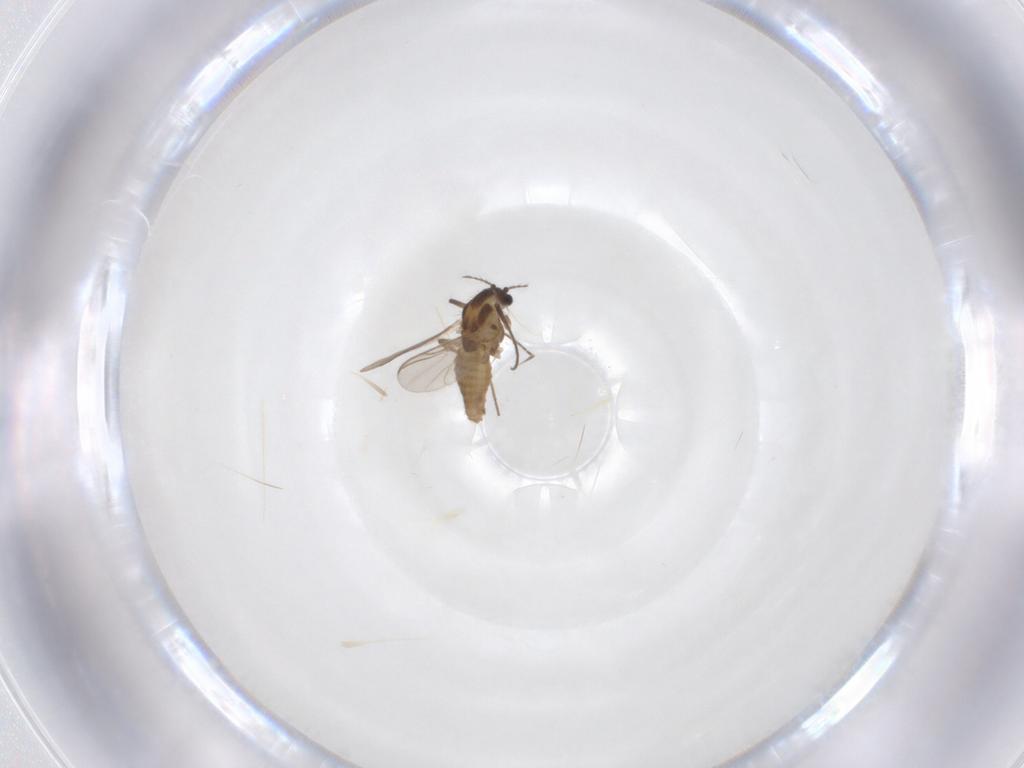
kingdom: Animalia
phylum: Arthropoda
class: Insecta
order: Diptera
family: Chironomidae
